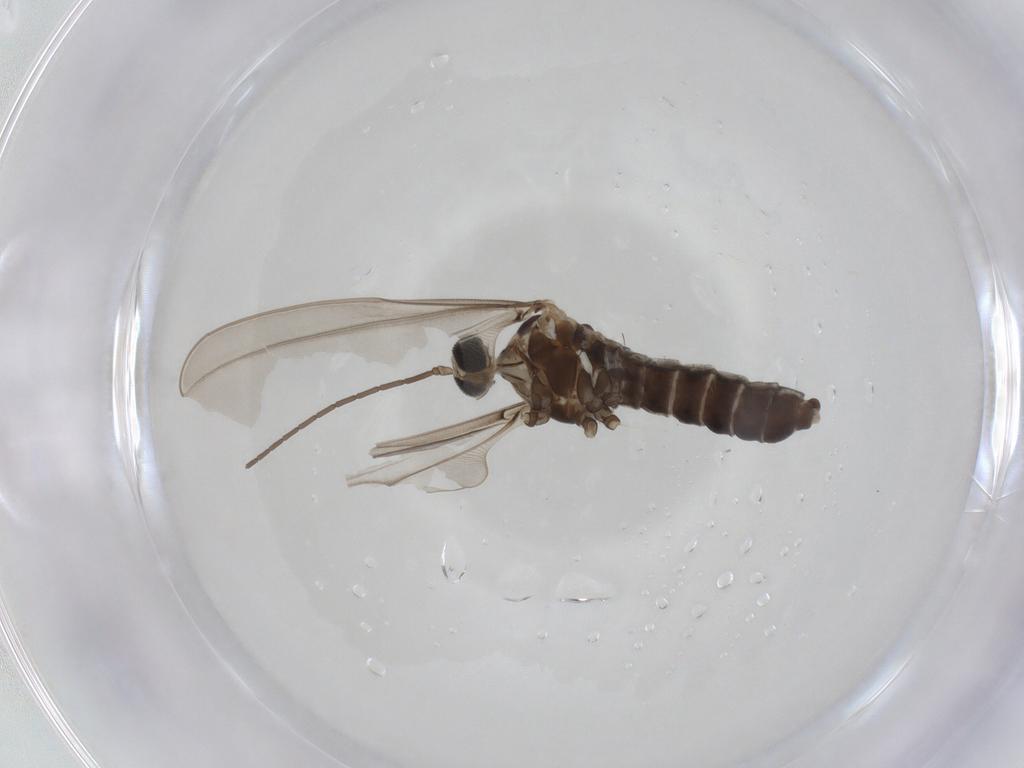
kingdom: Animalia
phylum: Arthropoda
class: Insecta
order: Diptera
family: Cecidomyiidae
